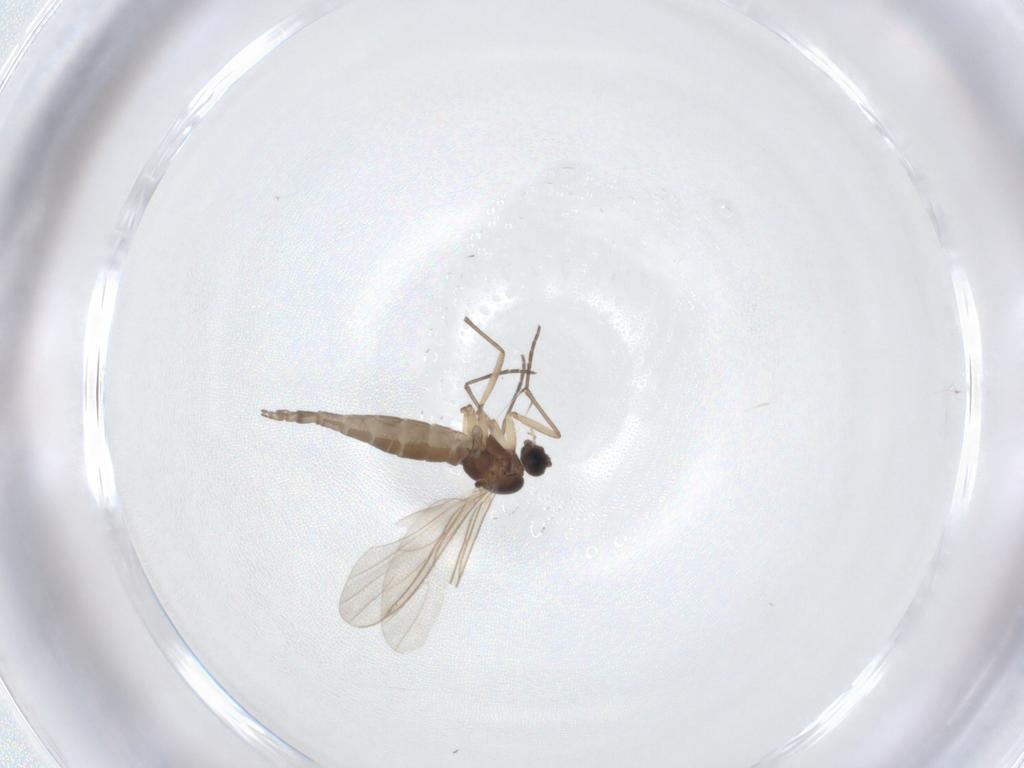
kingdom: Animalia
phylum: Arthropoda
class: Insecta
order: Diptera
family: Sciaridae
